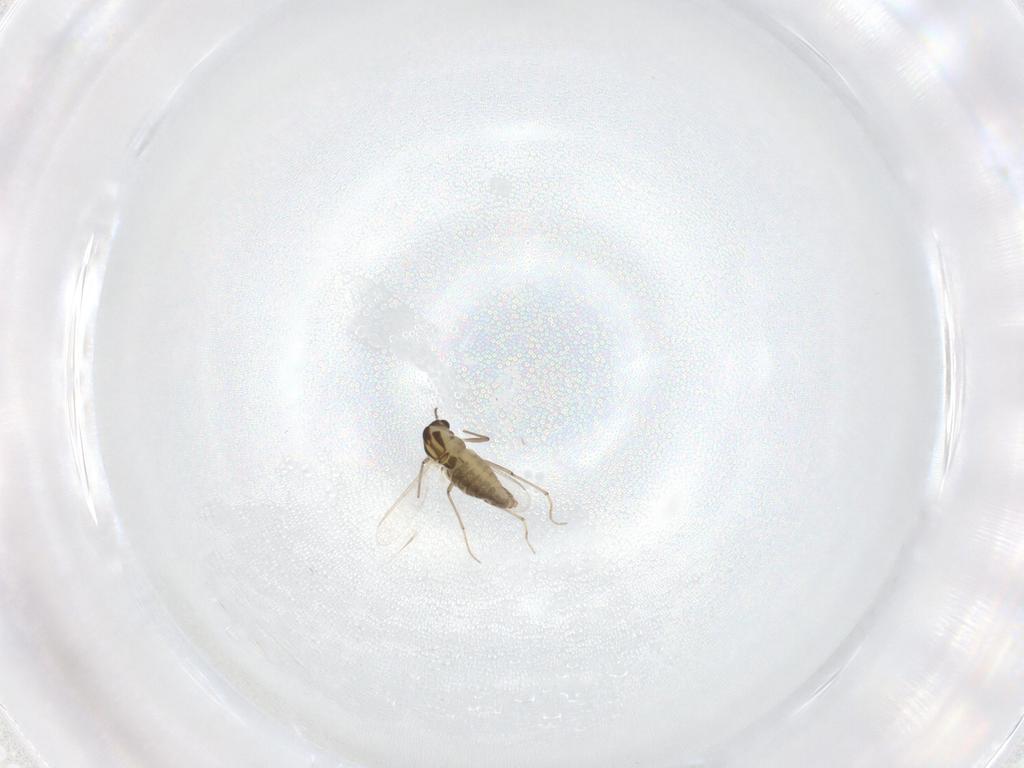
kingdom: Animalia
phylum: Arthropoda
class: Insecta
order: Diptera
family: Chironomidae
